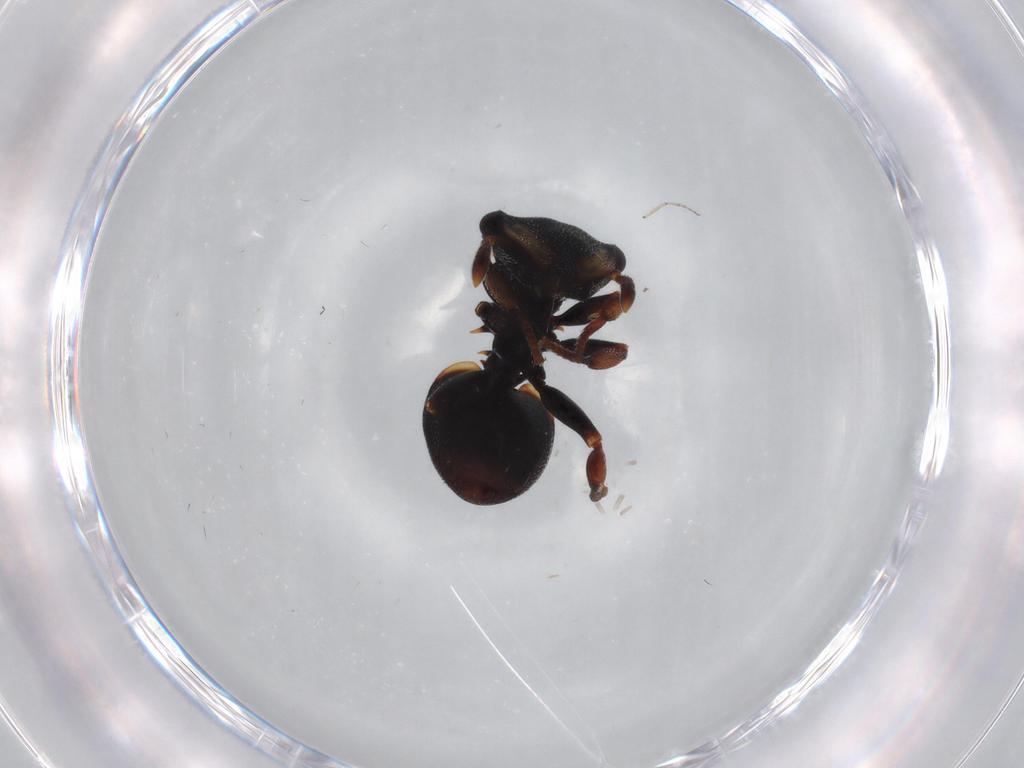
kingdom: Animalia
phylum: Arthropoda
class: Insecta
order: Hymenoptera
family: Formicidae
